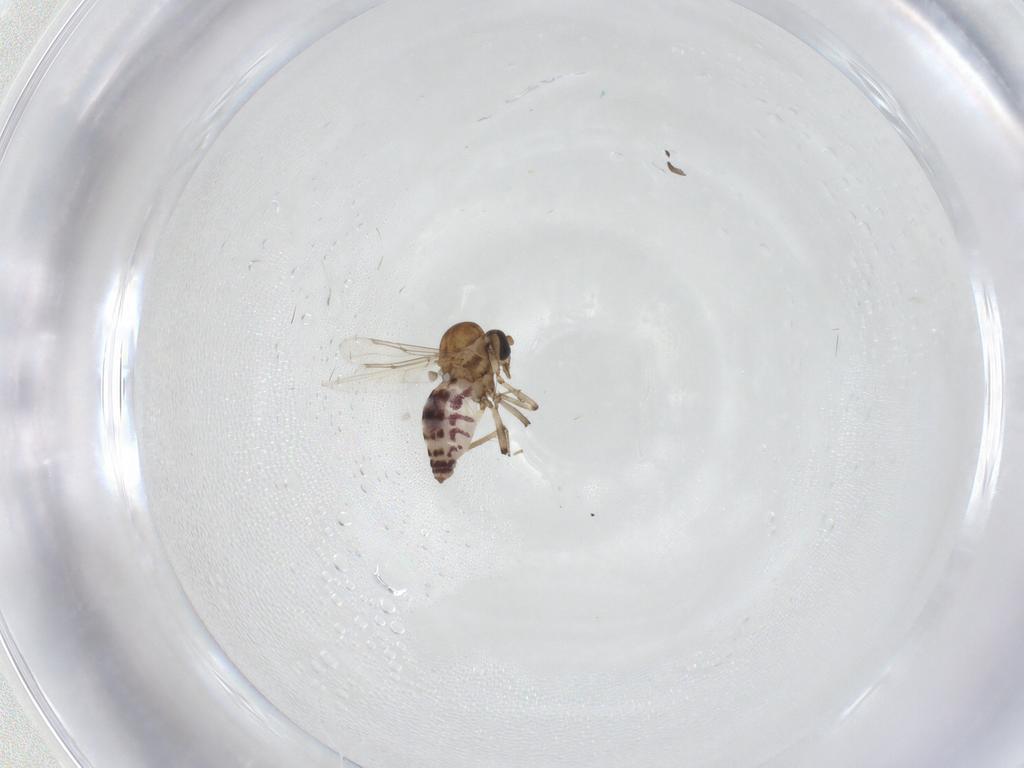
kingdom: Animalia
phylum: Arthropoda
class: Insecta
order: Diptera
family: Ceratopogonidae
